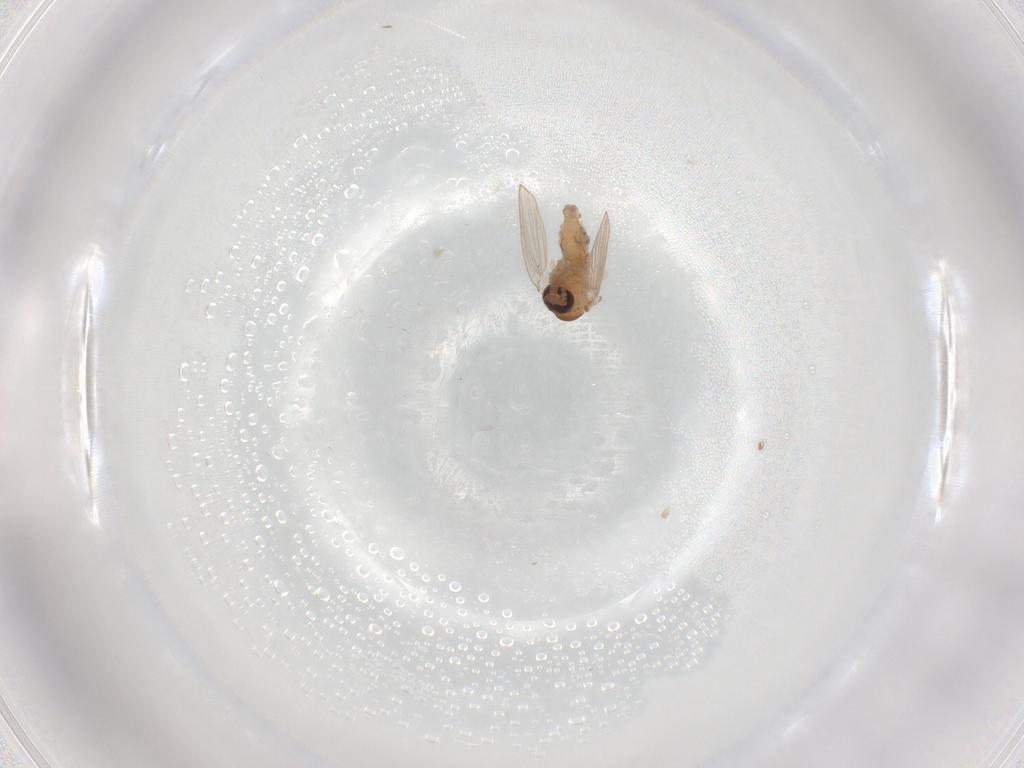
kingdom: Animalia
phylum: Arthropoda
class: Insecta
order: Diptera
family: Psychodidae
